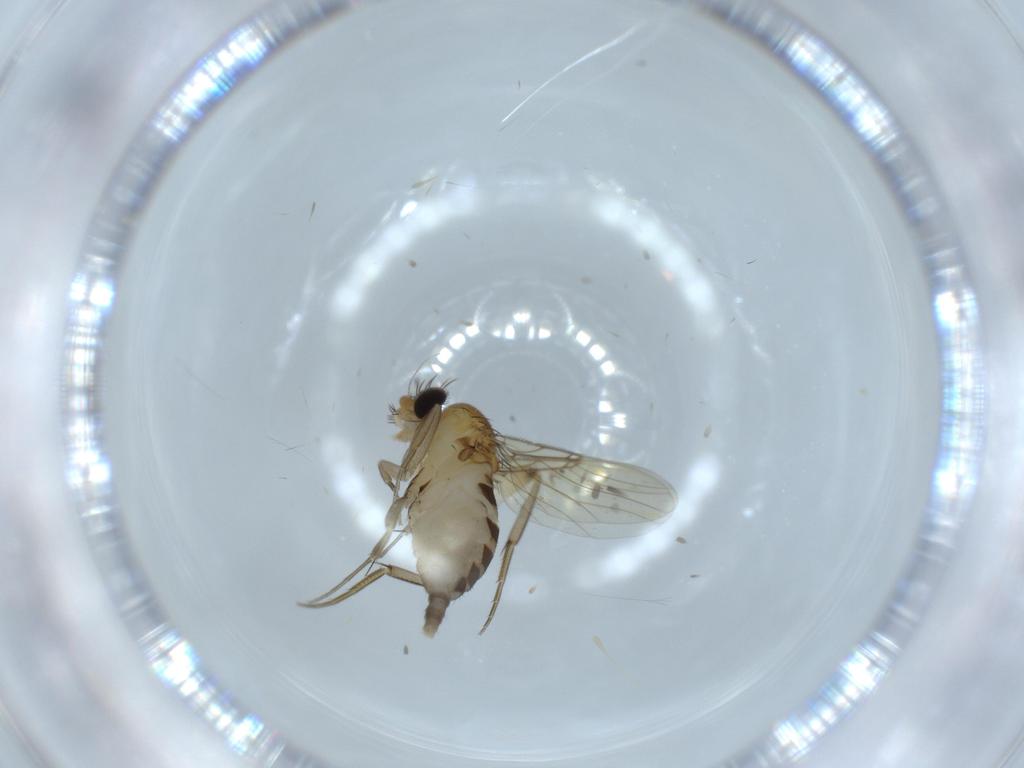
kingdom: Animalia
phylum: Arthropoda
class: Insecta
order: Diptera
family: Phoridae
